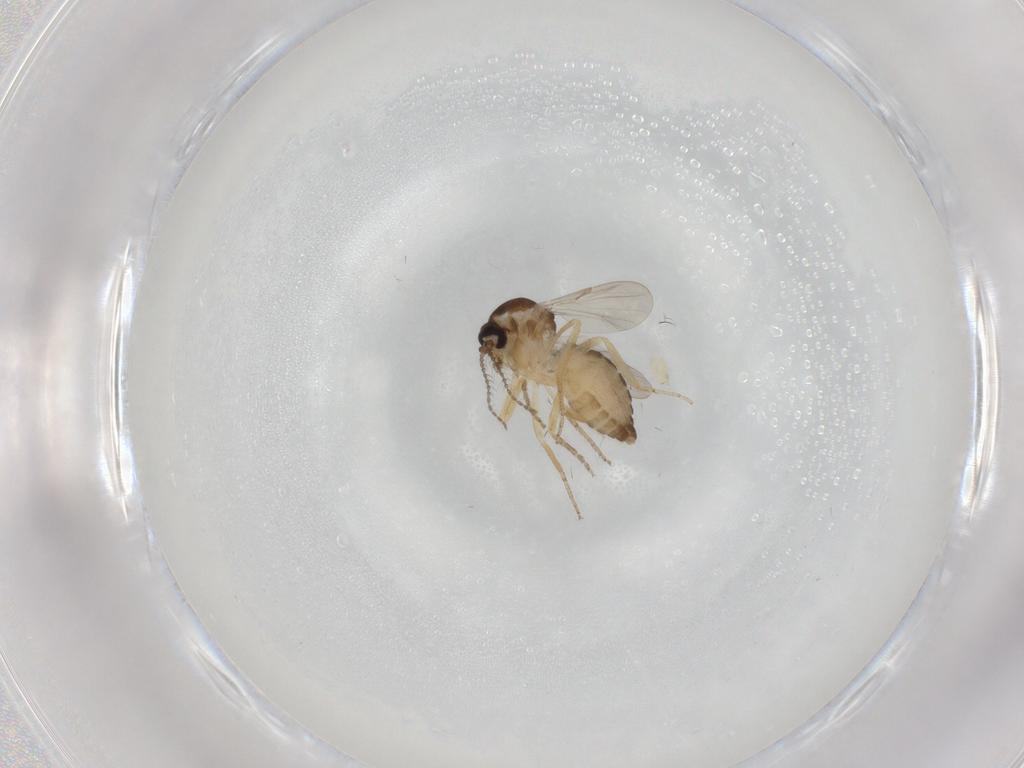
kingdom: Animalia
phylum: Arthropoda
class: Insecta
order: Diptera
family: Ceratopogonidae
